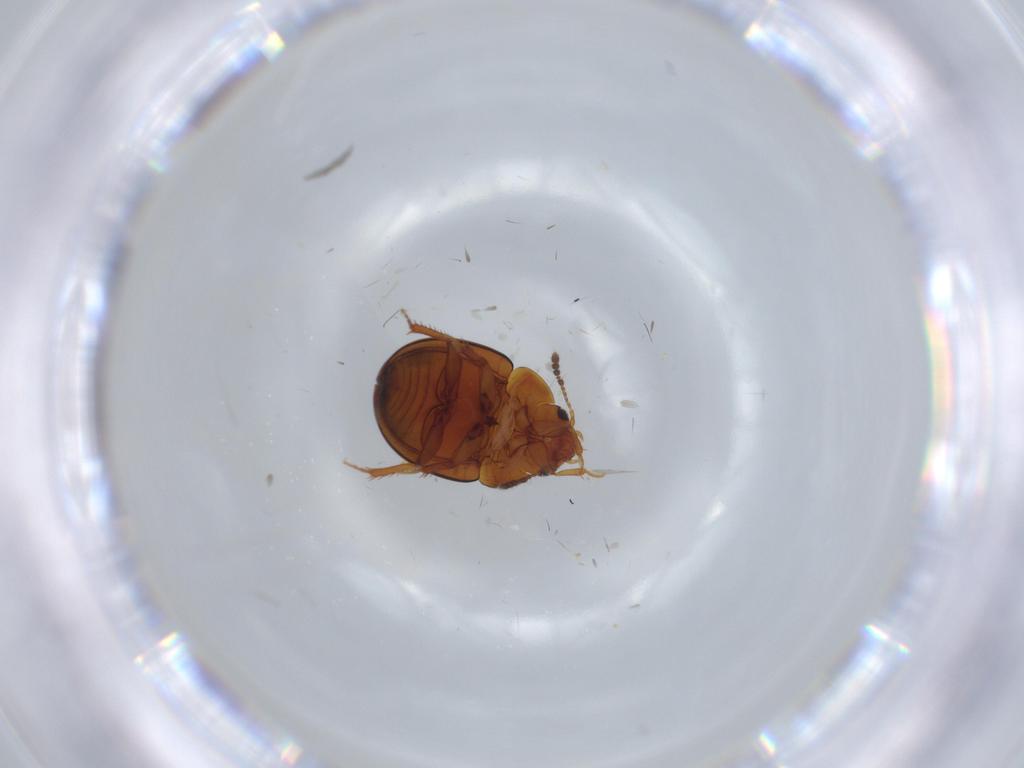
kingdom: Animalia
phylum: Arthropoda
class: Insecta
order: Coleoptera
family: Leiodidae
